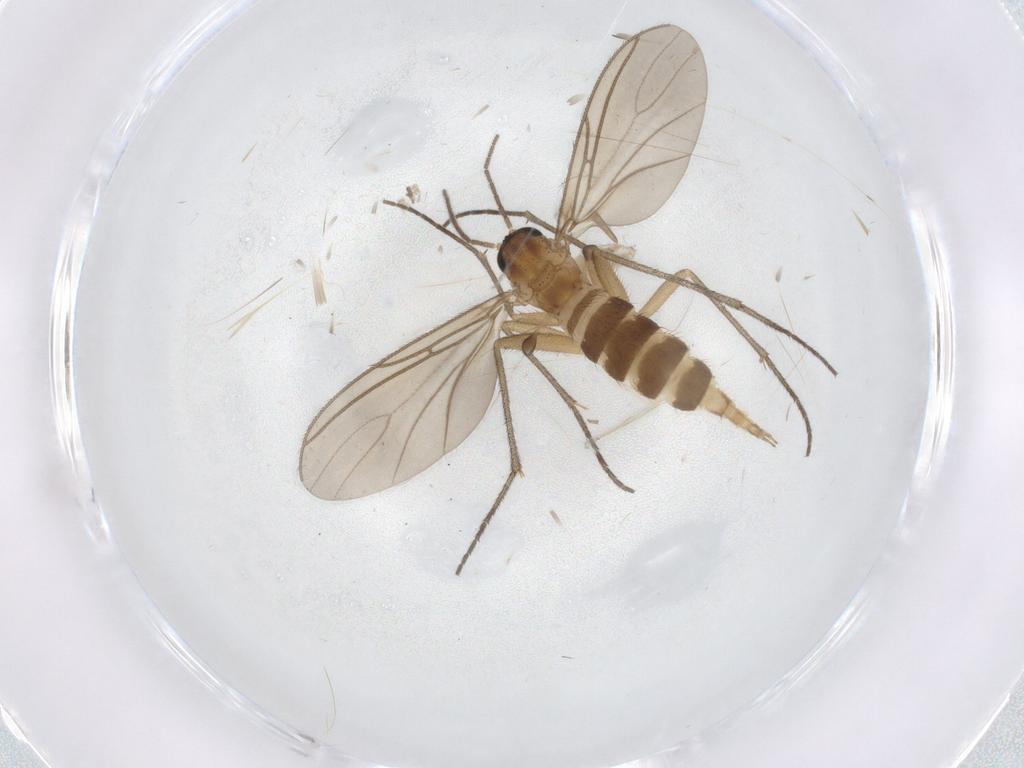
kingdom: Animalia
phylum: Arthropoda
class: Insecta
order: Diptera
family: Sciaridae
